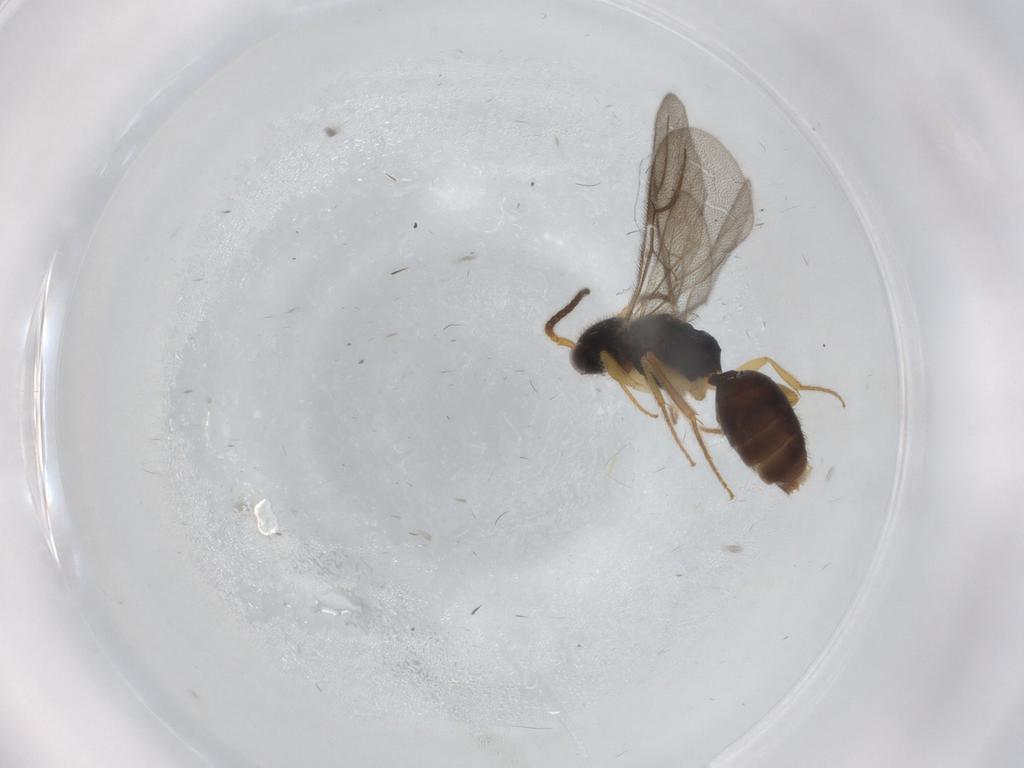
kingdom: Animalia
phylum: Arthropoda
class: Insecta
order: Hymenoptera
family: Bethylidae
